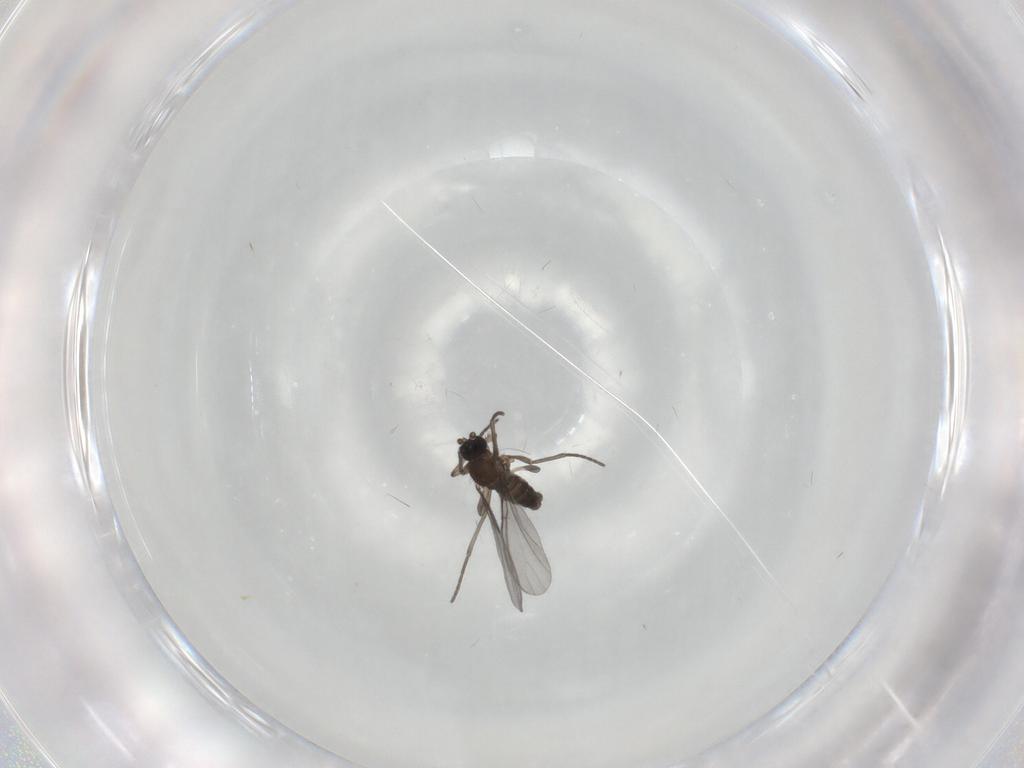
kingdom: Animalia
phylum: Arthropoda
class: Insecta
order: Diptera
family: Sciaridae
